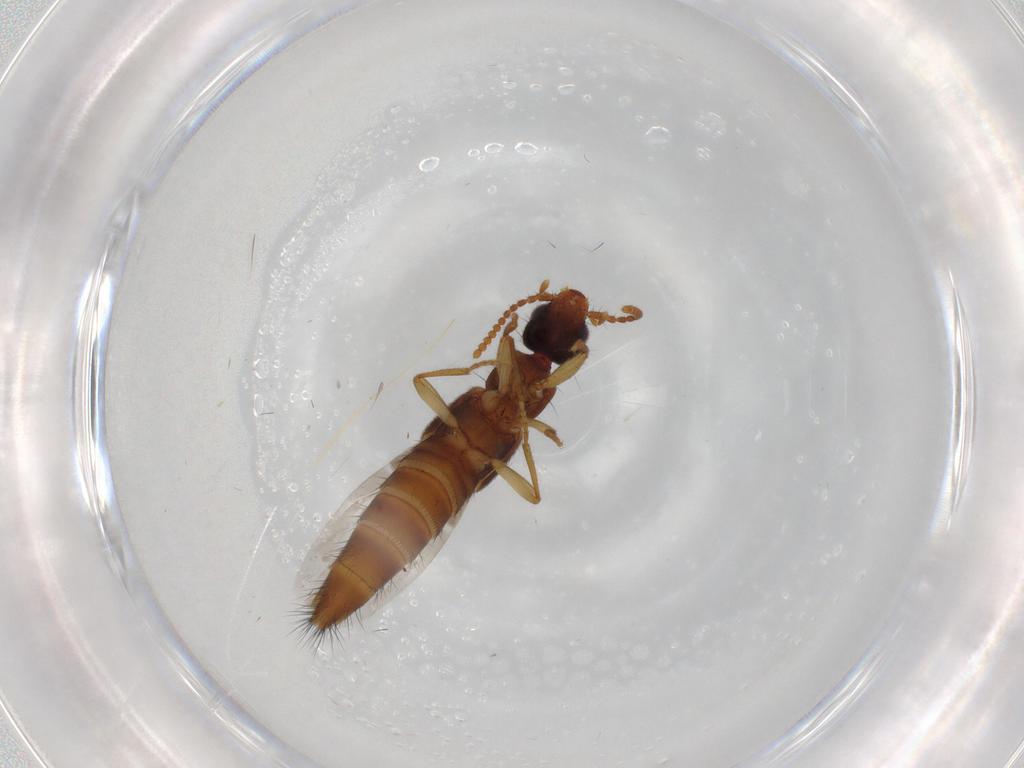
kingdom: Animalia
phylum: Arthropoda
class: Insecta
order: Coleoptera
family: Staphylinidae
